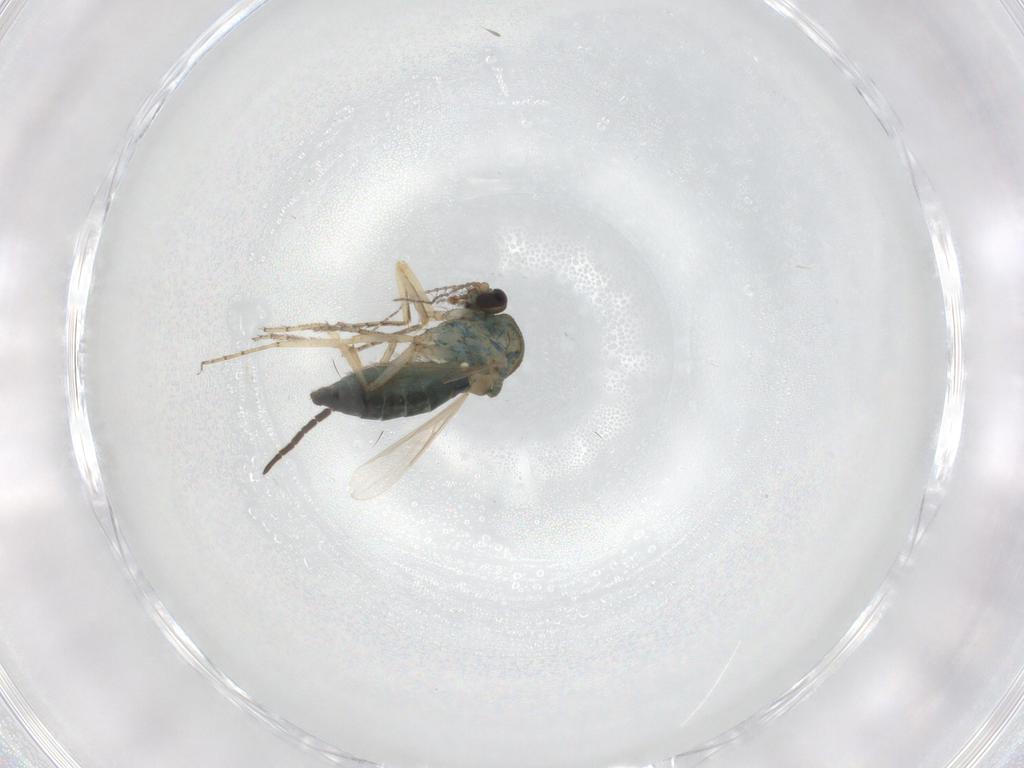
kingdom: Animalia
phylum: Arthropoda
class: Insecta
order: Diptera
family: Ceratopogonidae
